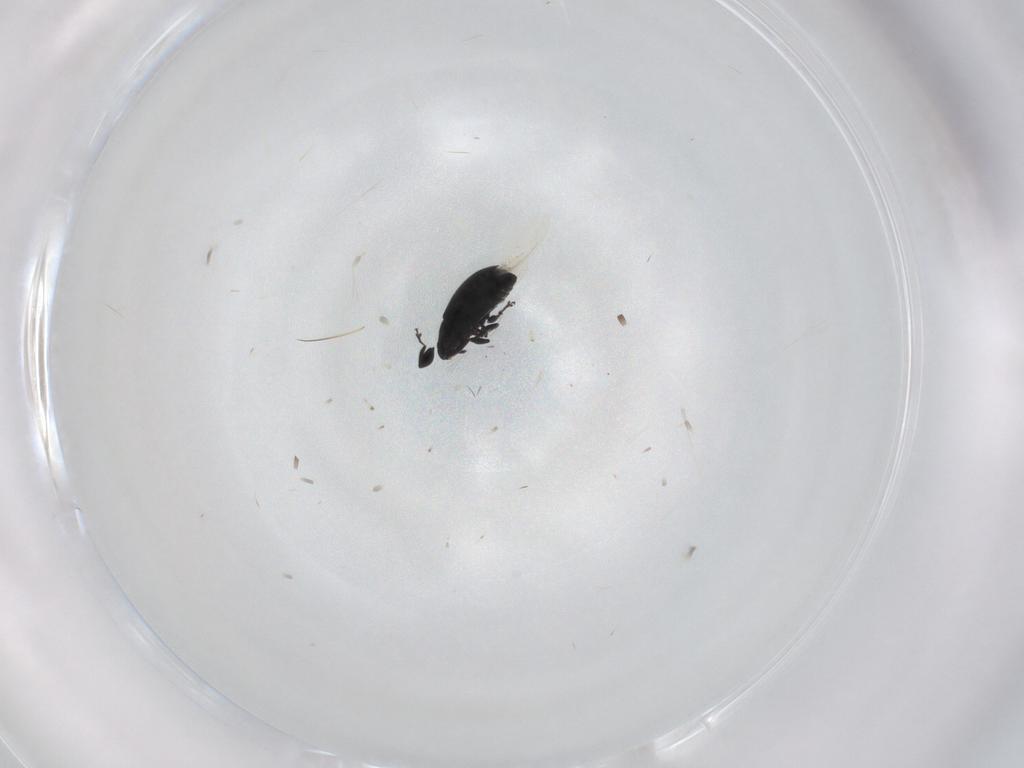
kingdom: Animalia
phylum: Arthropoda
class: Insecta
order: Coleoptera
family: Curculionidae
